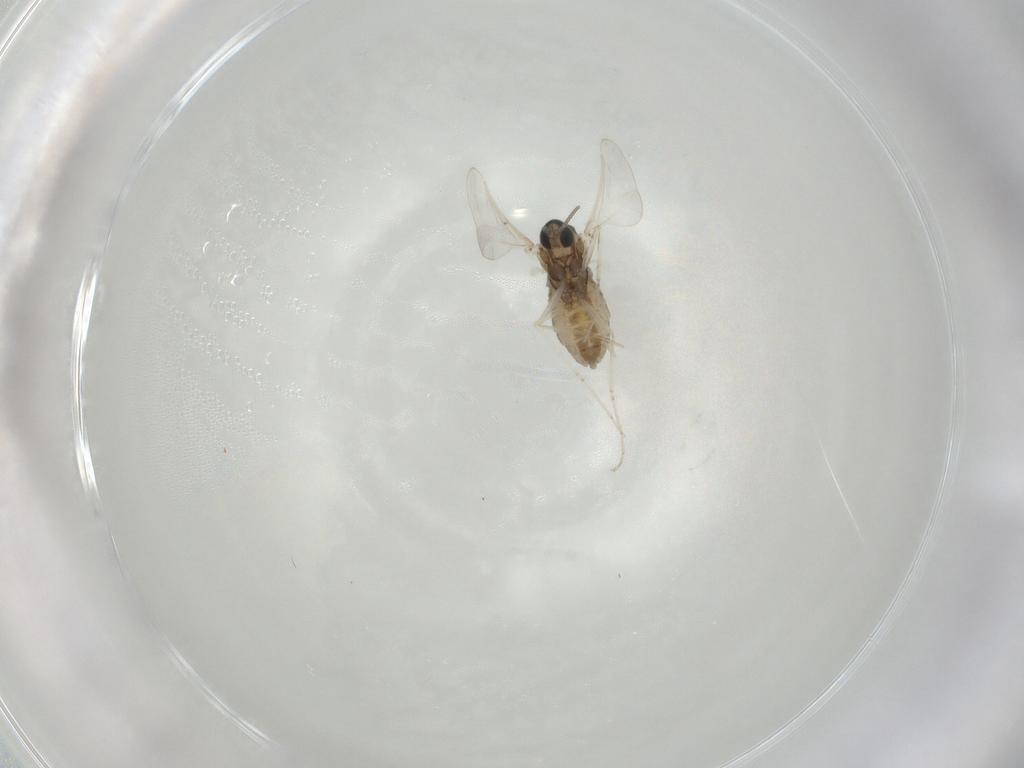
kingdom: Animalia
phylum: Arthropoda
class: Insecta
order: Diptera
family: Cecidomyiidae
